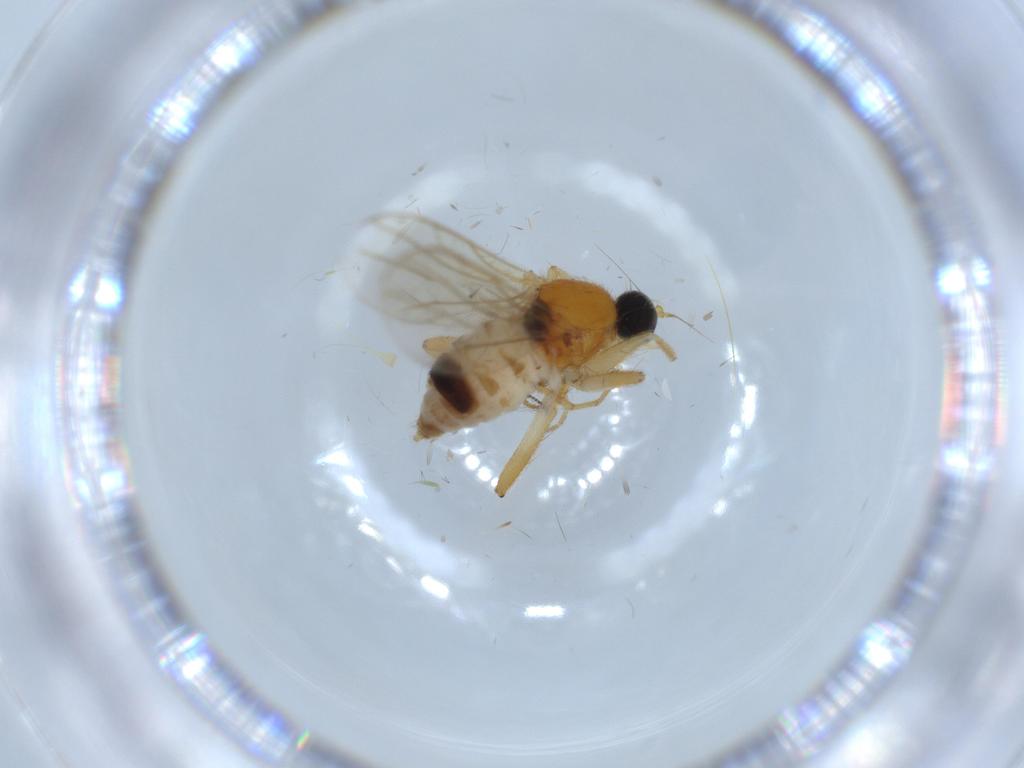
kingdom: Animalia
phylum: Arthropoda
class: Insecta
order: Diptera
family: Hybotidae
